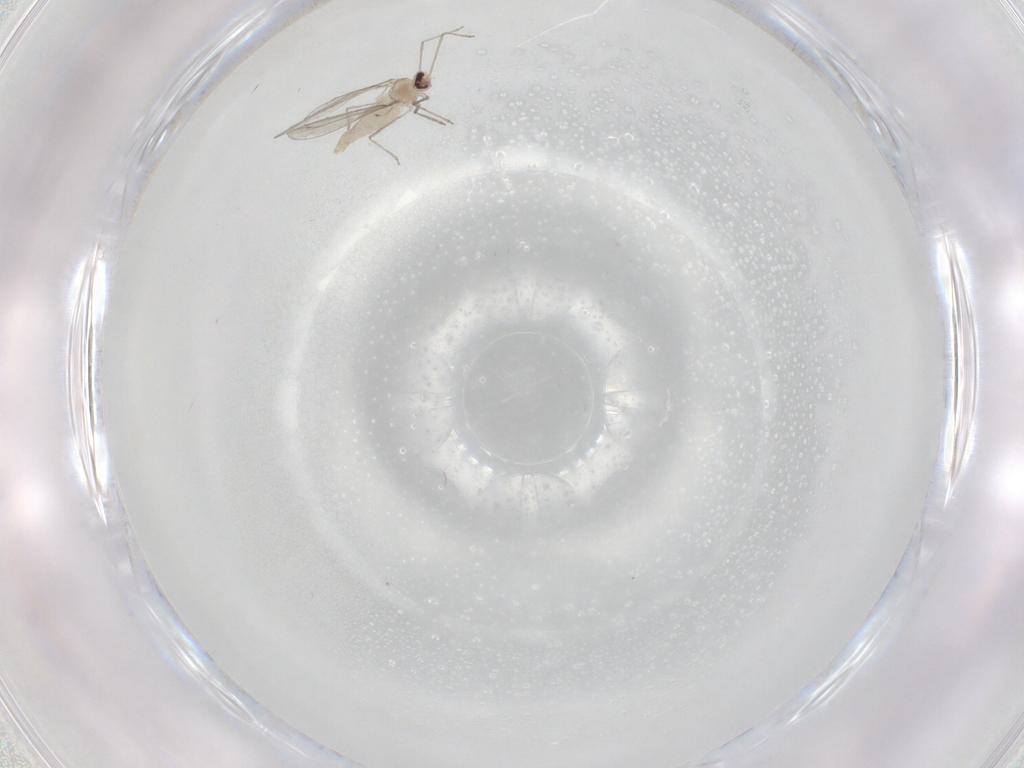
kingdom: Animalia
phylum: Arthropoda
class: Insecta
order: Diptera
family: Cecidomyiidae
